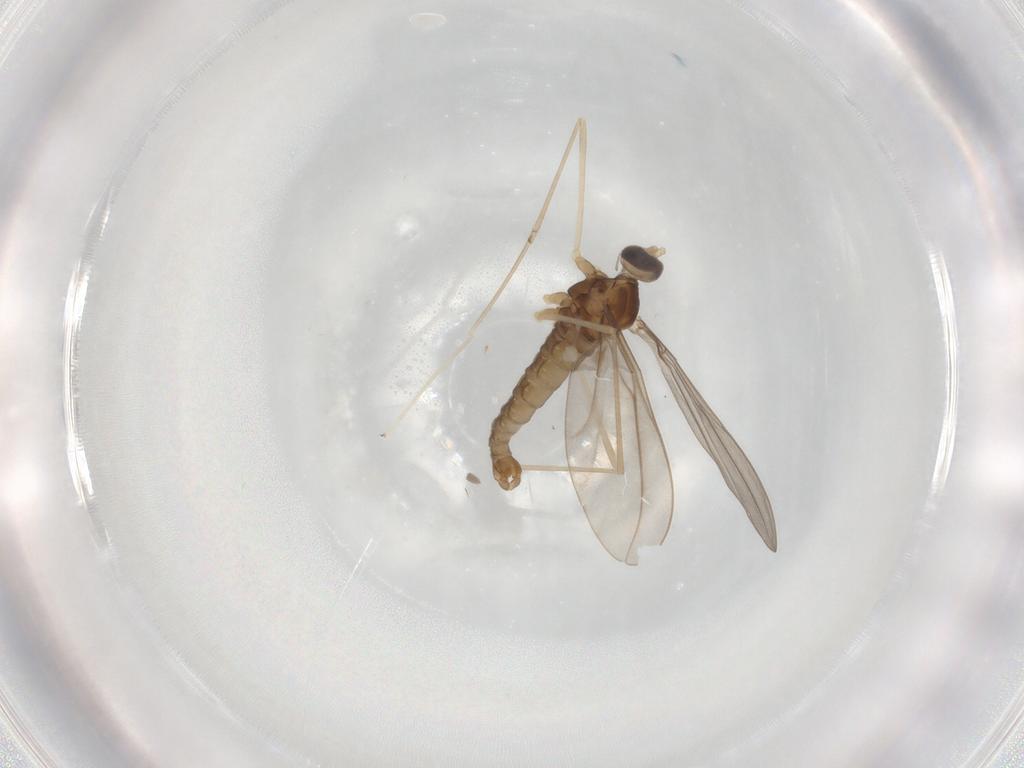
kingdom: Animalia
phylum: Arthropoda
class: Insecta
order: Diptera
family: Cecidomyiidae
